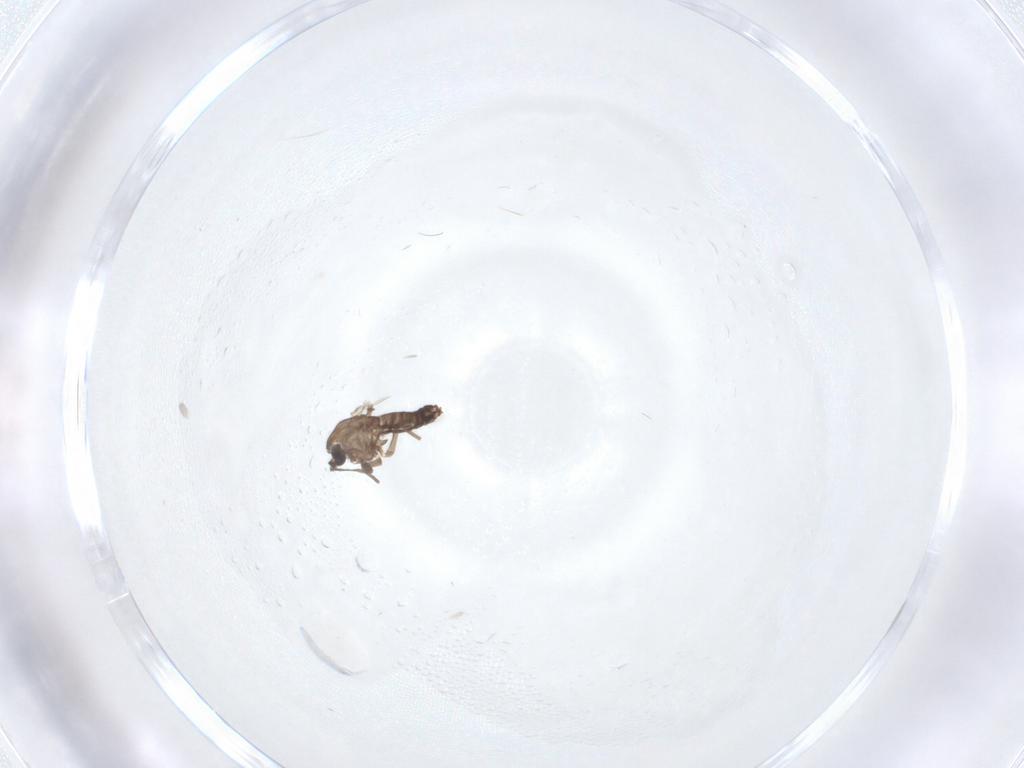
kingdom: Animalia
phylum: Arthropoda
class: Insecta
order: Diptera
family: Chironomidae
